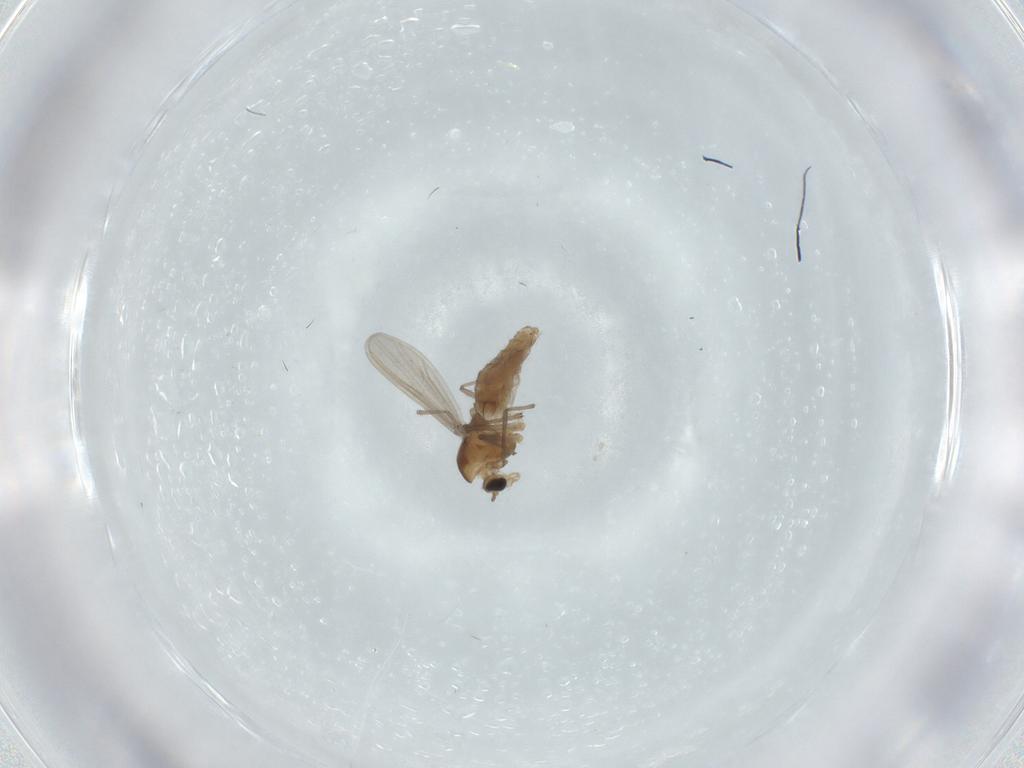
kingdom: Animalia
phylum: Arthropoda
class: Insecta
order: Diptera
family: Chironomidae
